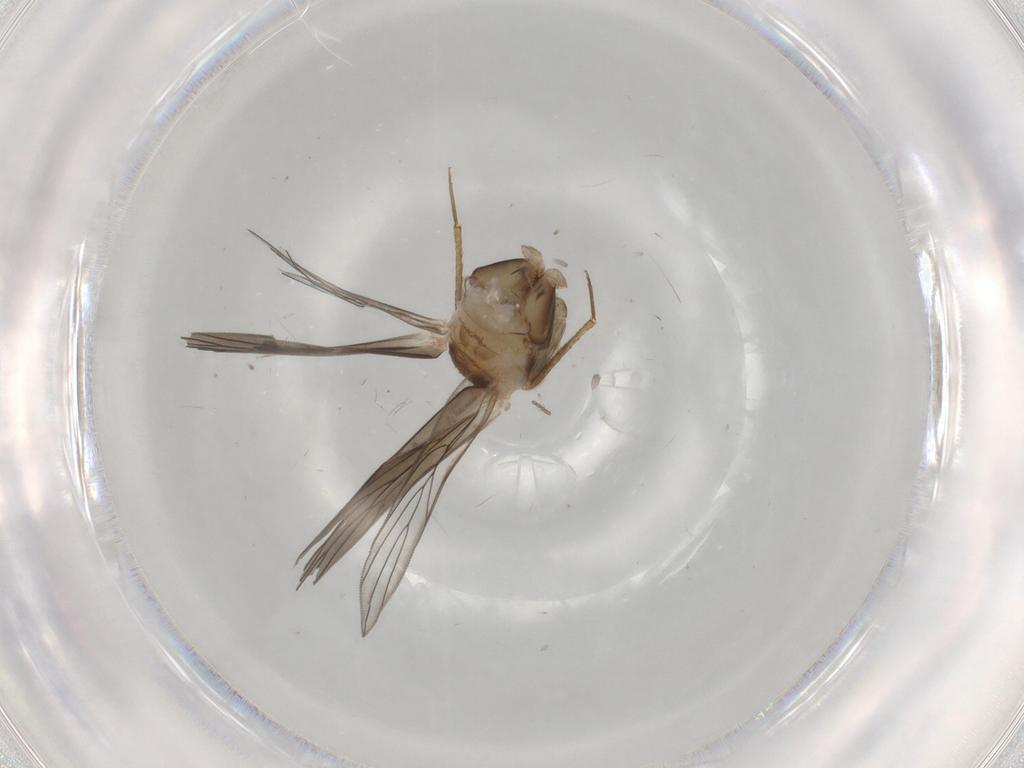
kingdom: Animalia
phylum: Arthropoda
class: Insecta
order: Psocodea
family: Lepidopsocidae
